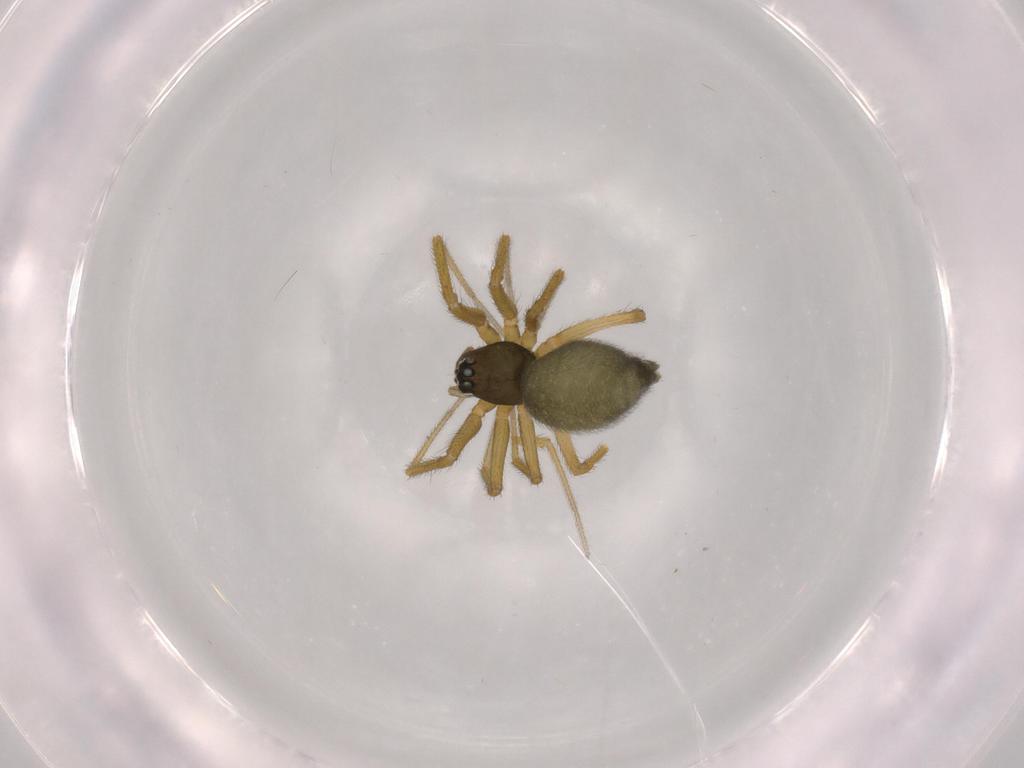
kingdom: Animalia
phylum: Arthropoda
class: Arachnida
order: Araneae
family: Linyphiidae
